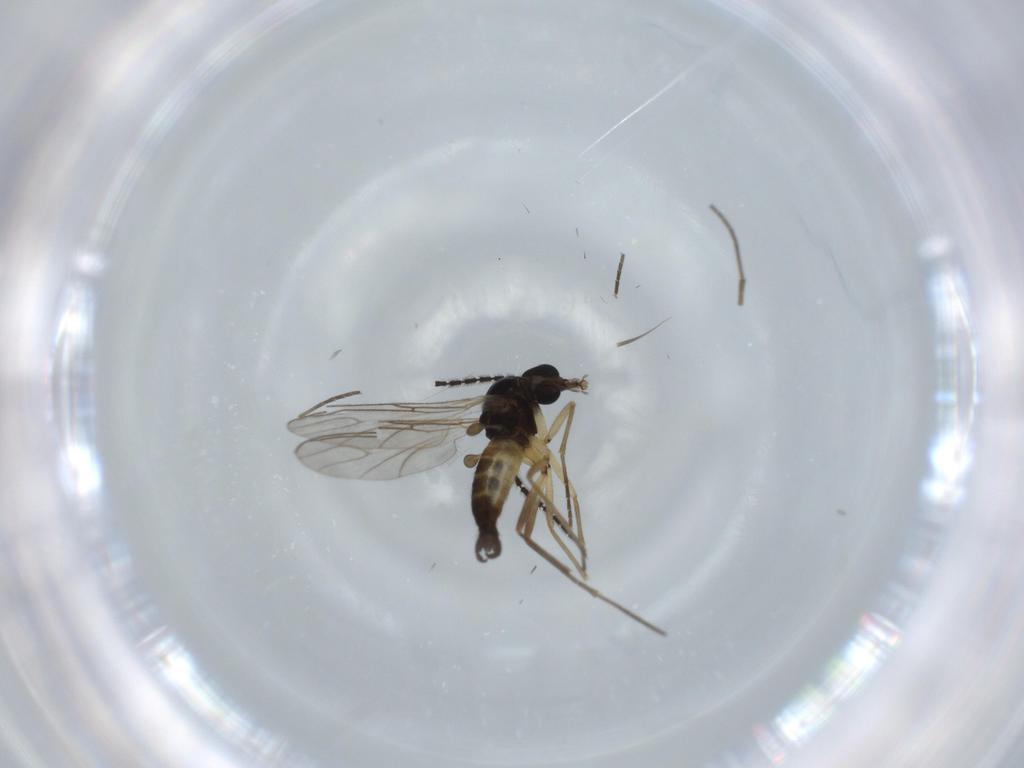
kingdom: Animalia
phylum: Arthropoda
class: Insecta
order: Diptera
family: Sciaridae
